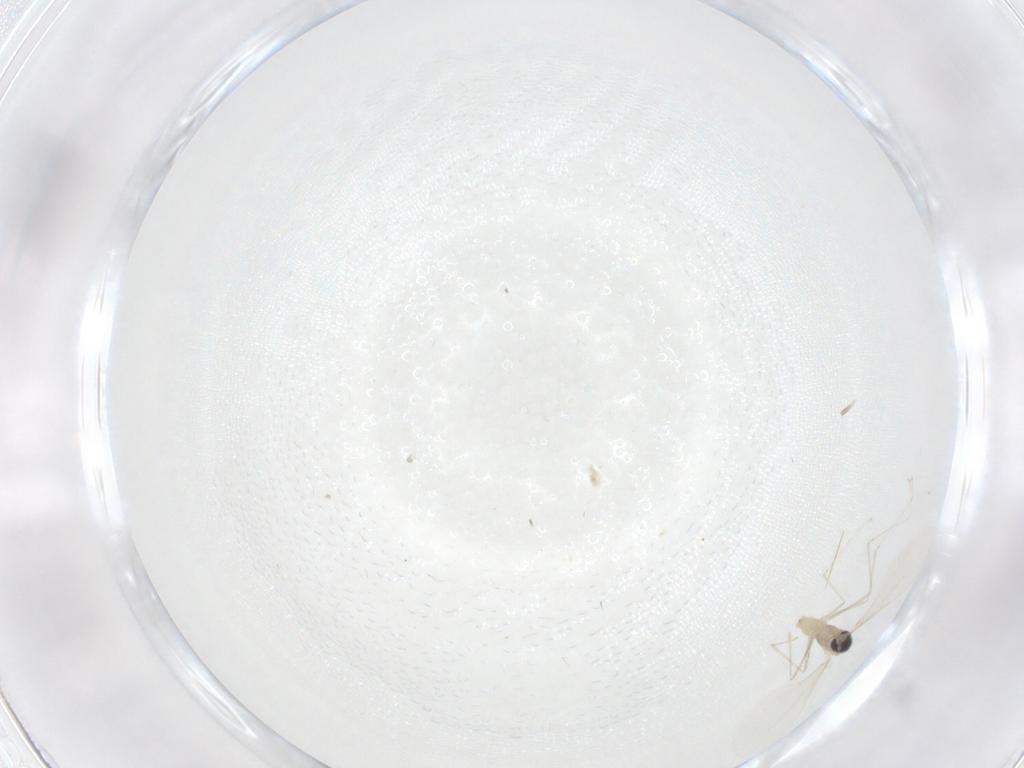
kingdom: Animalia
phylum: Arthropoda
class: Insecta
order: Diptera
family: Cecidomyiidae
